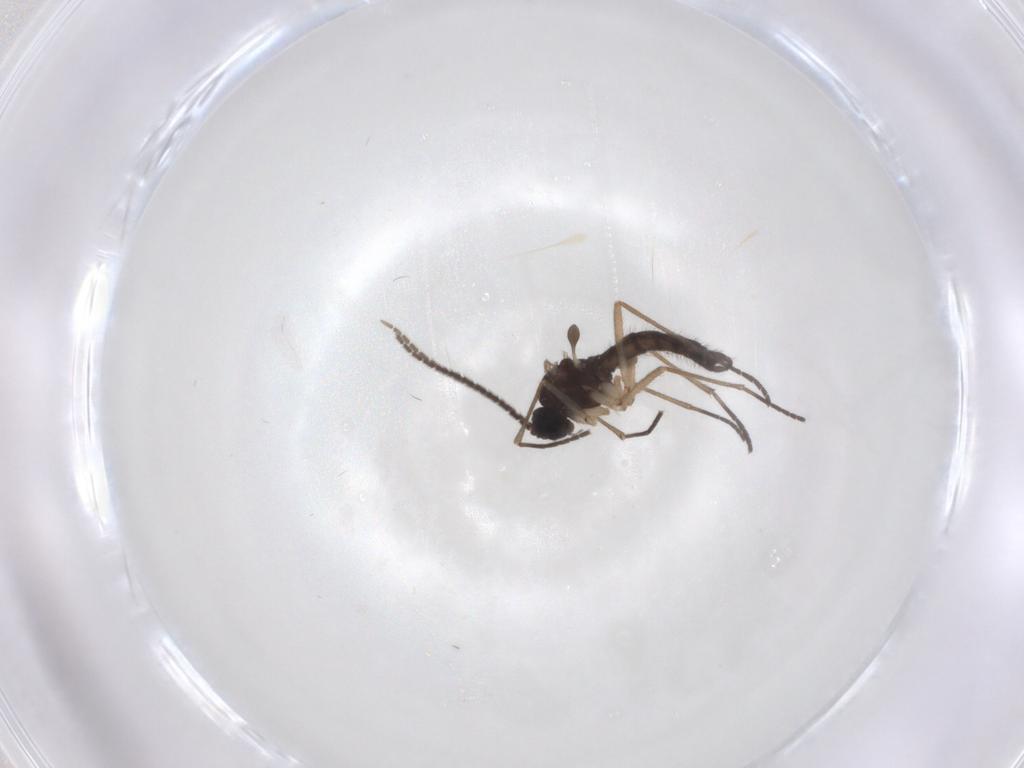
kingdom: Animalia
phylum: Arthropoda
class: Insecta
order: Diptera
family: Sciaridae
